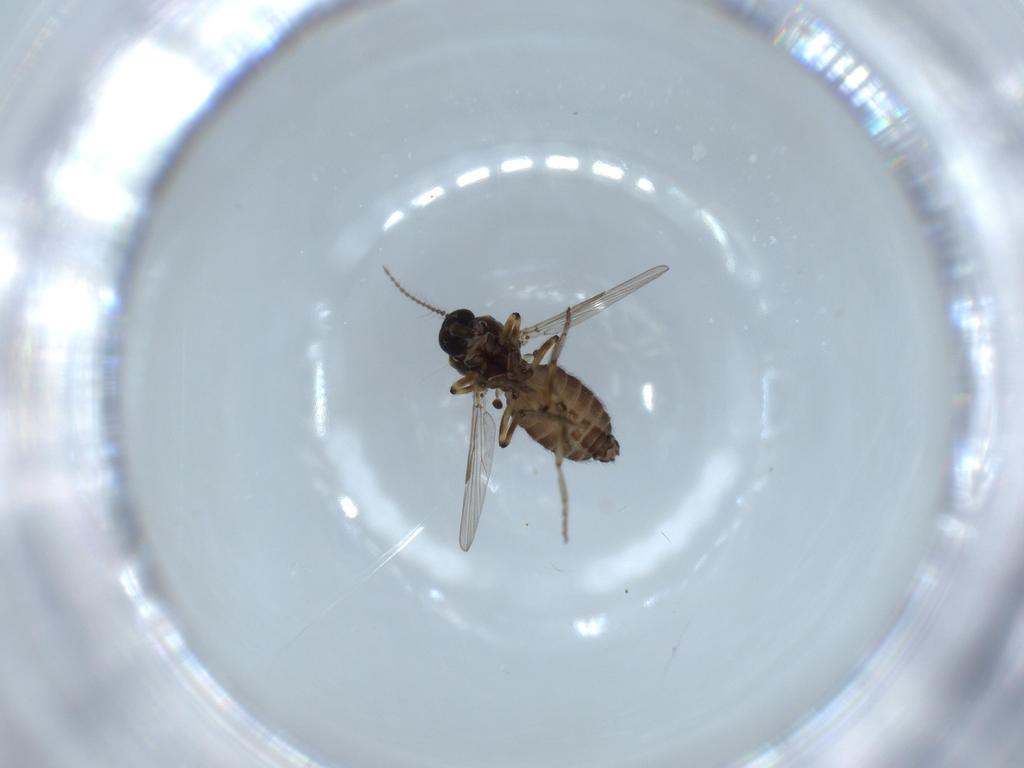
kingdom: Animalia
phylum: Arthropoda
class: Insecta
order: Diptera
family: Ceratopogonidae
